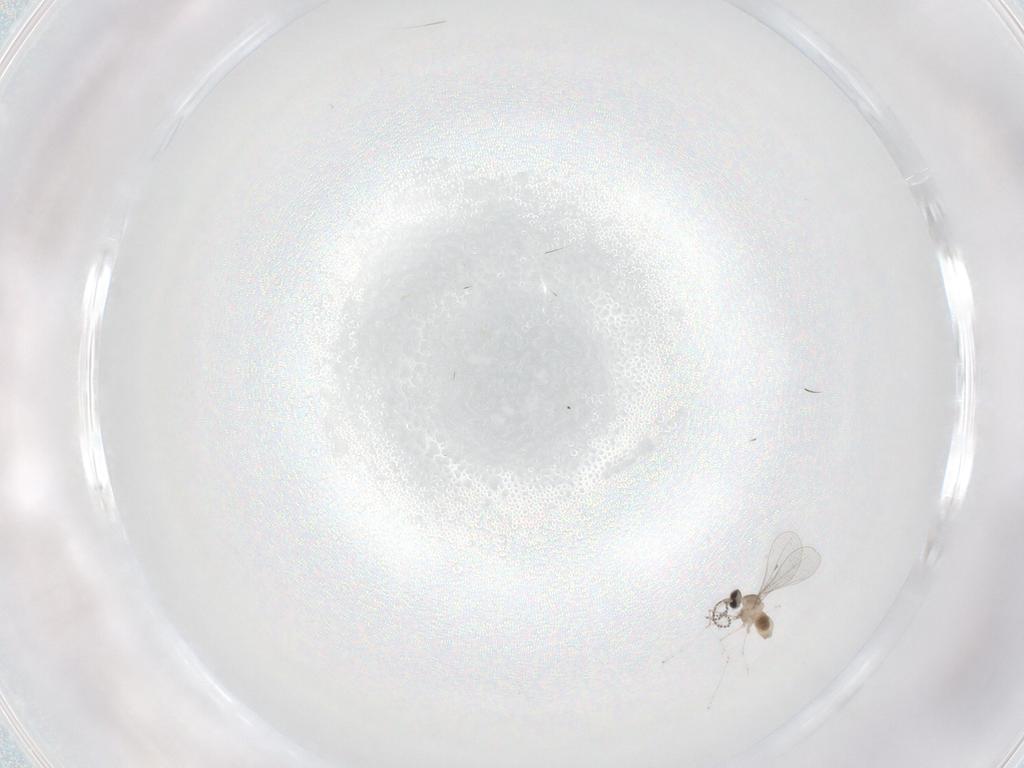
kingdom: Animalia
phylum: Arthropoda
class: Insecta
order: Diptera
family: Cecidomyiidae
